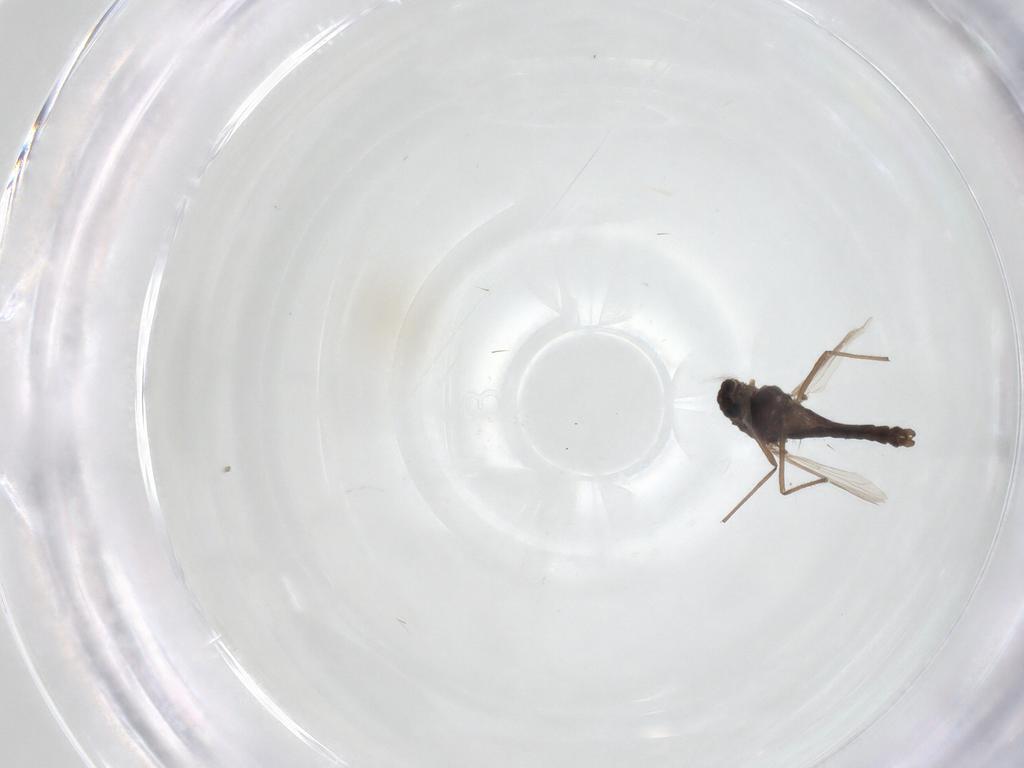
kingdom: Animalia
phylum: Arthropoda
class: Insecta
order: Diptera
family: Chironomidae
